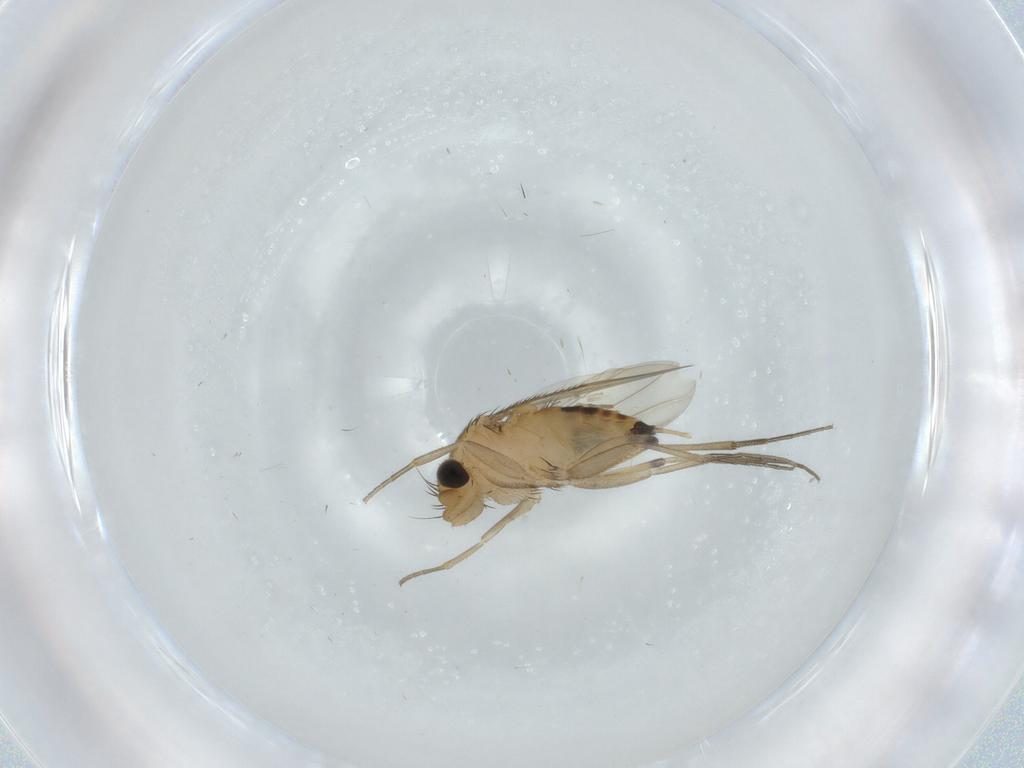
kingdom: Animalia
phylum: Arthropoda
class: Insecta
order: Diptera
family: Phoridae
